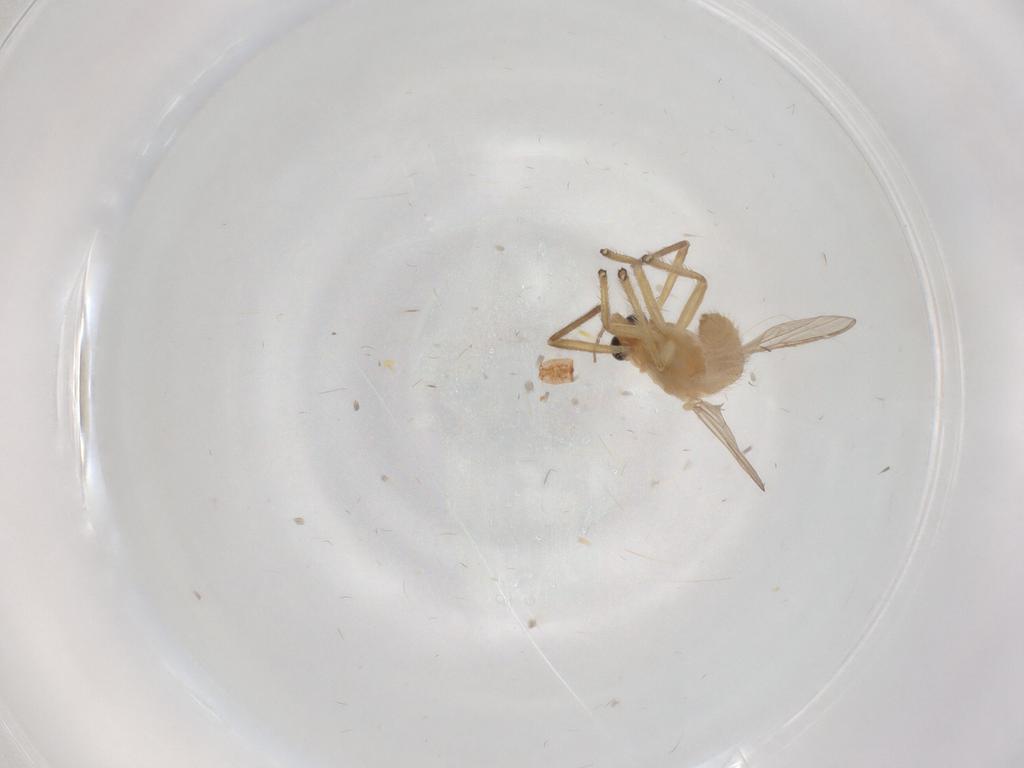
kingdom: Animalia
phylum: Arthropoda
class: Insecta
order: Diptera
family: Chironomidae
